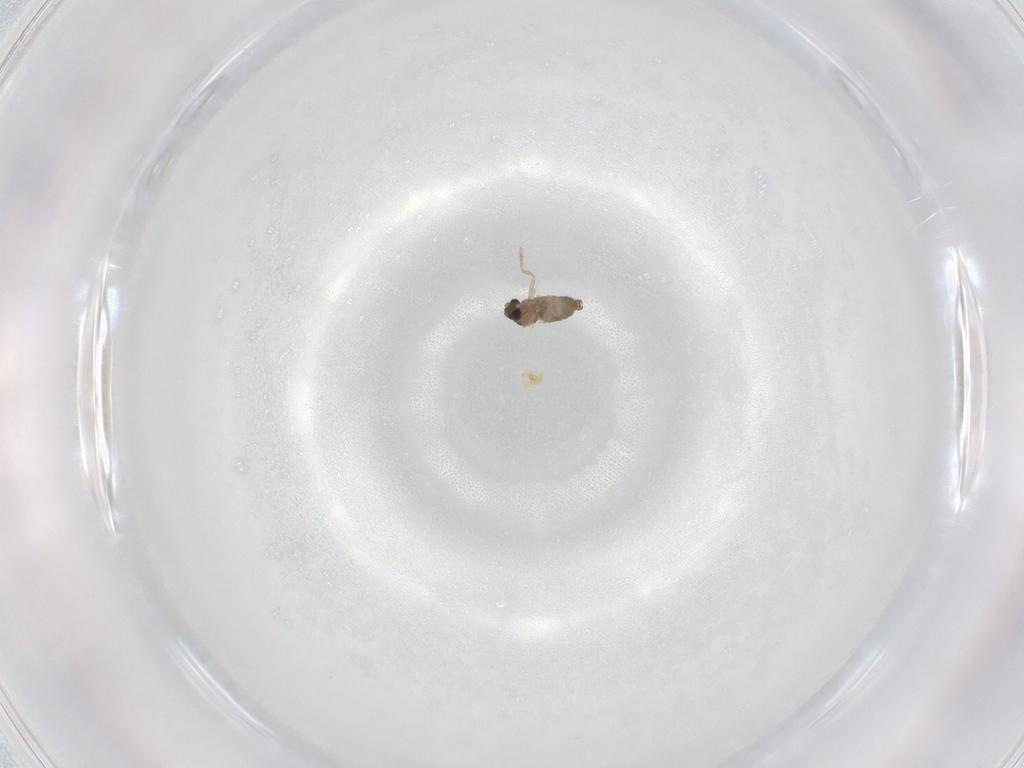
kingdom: Animalia
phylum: Arthropoda
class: Insecta
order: Diptera
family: Cecidomyiidae
